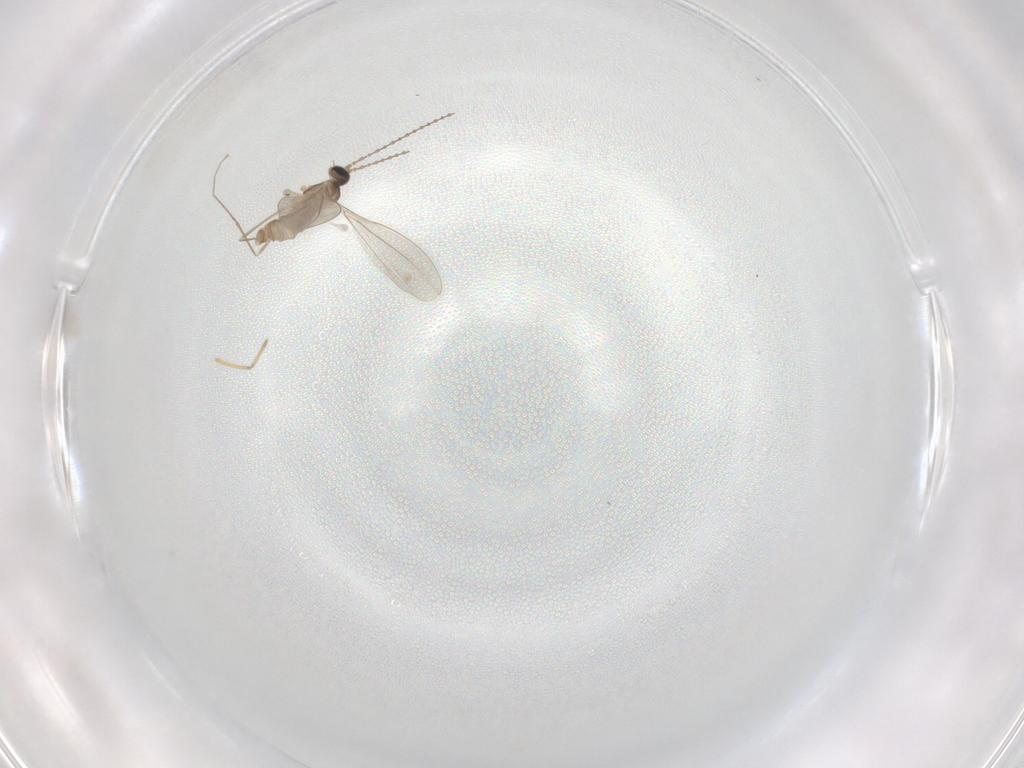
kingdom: Animalia
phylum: Arthropoda
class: Insecta
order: Diptera
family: Cecidomyiidae
